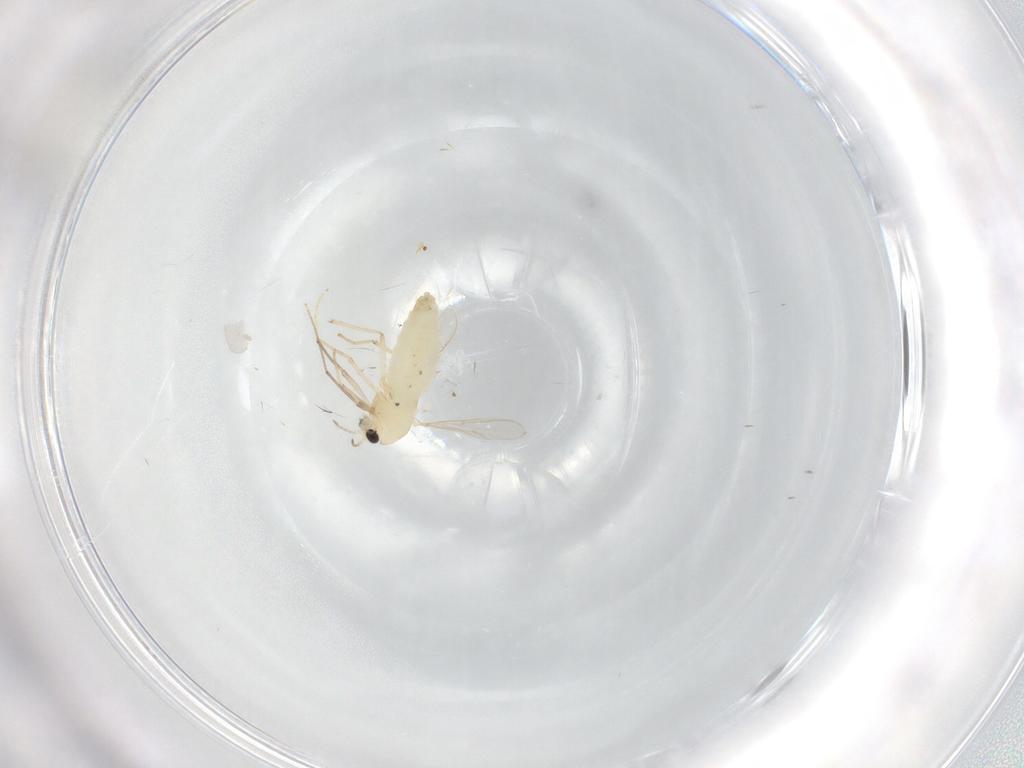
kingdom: Animalia
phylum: Arthropoda
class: Insecta
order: Diptera
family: Chironomidae
